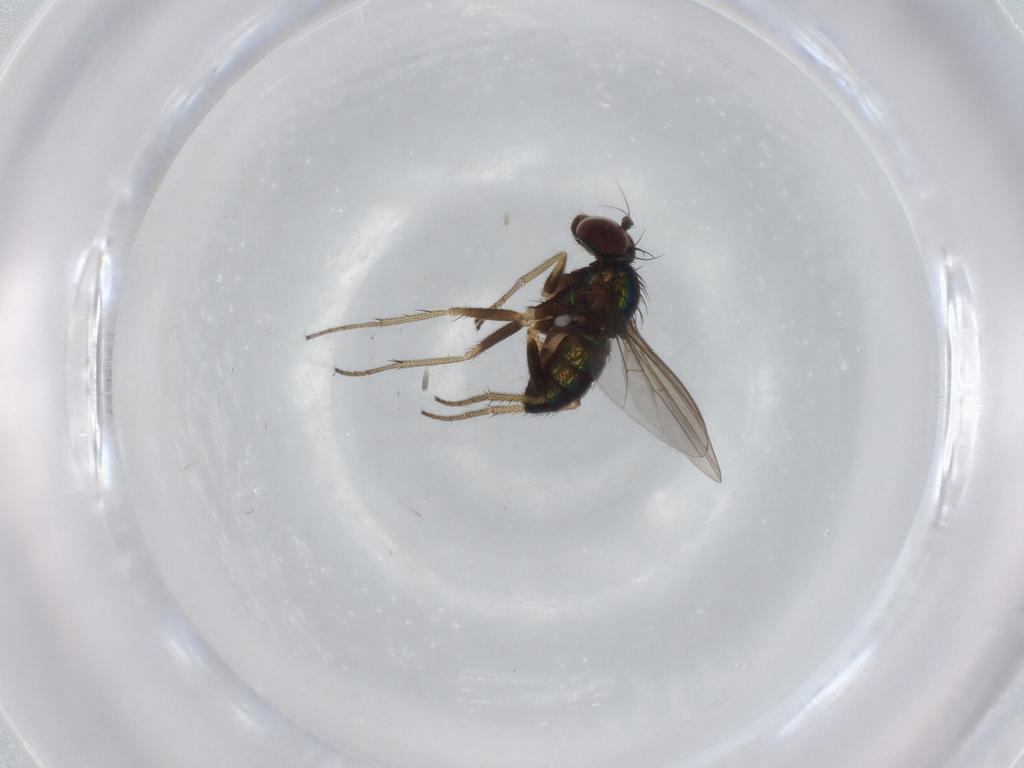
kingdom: Animalia
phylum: Arthropoda
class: Insecta
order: Diptera
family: Dolichopodidae
